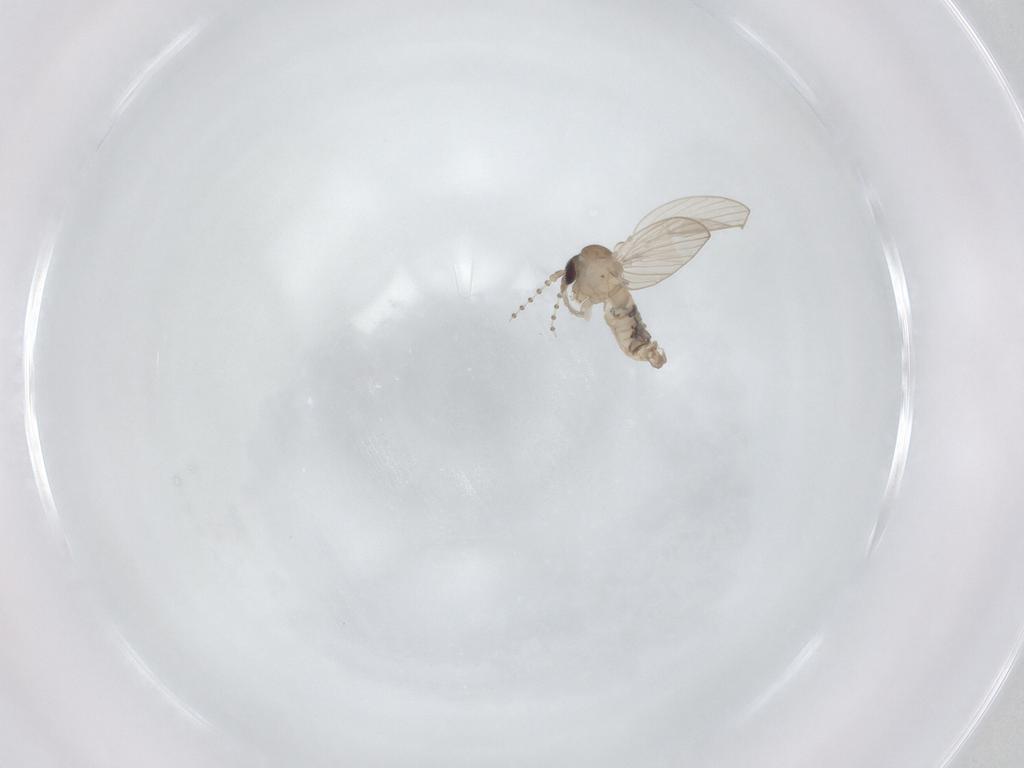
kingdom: Animalia
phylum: Arthropoda
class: Insecta
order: Diptera
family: Psychodidae
